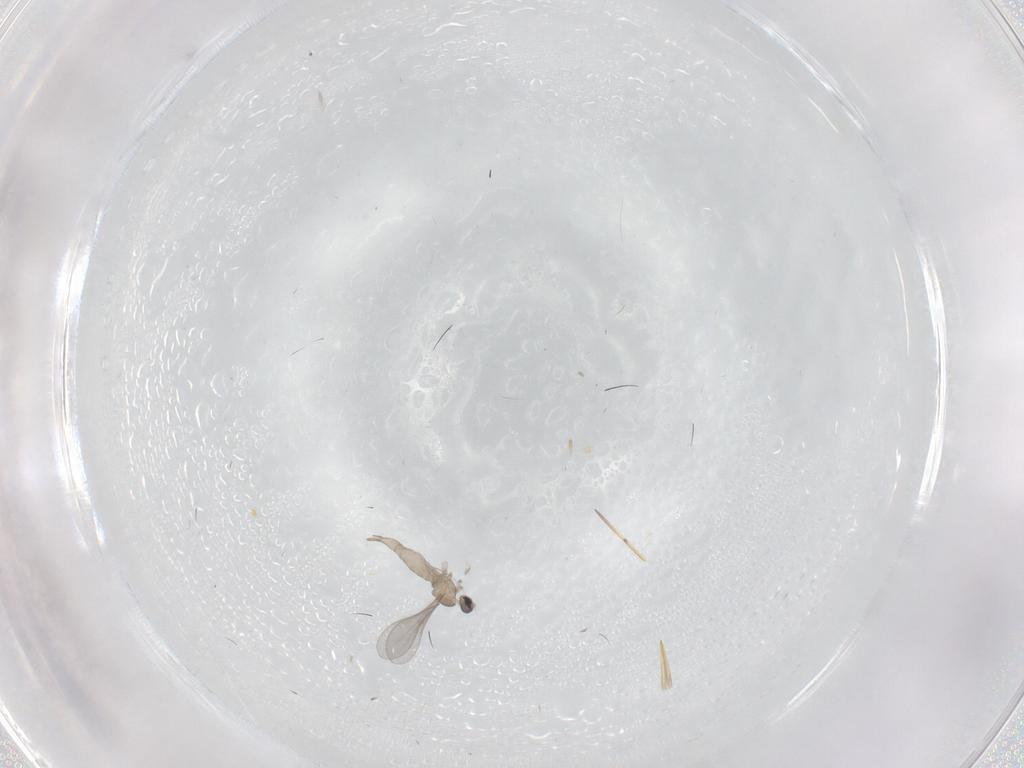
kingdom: Animalia
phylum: Arthropoda
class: Insecta
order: Diptera
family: Cecidomyiidae
